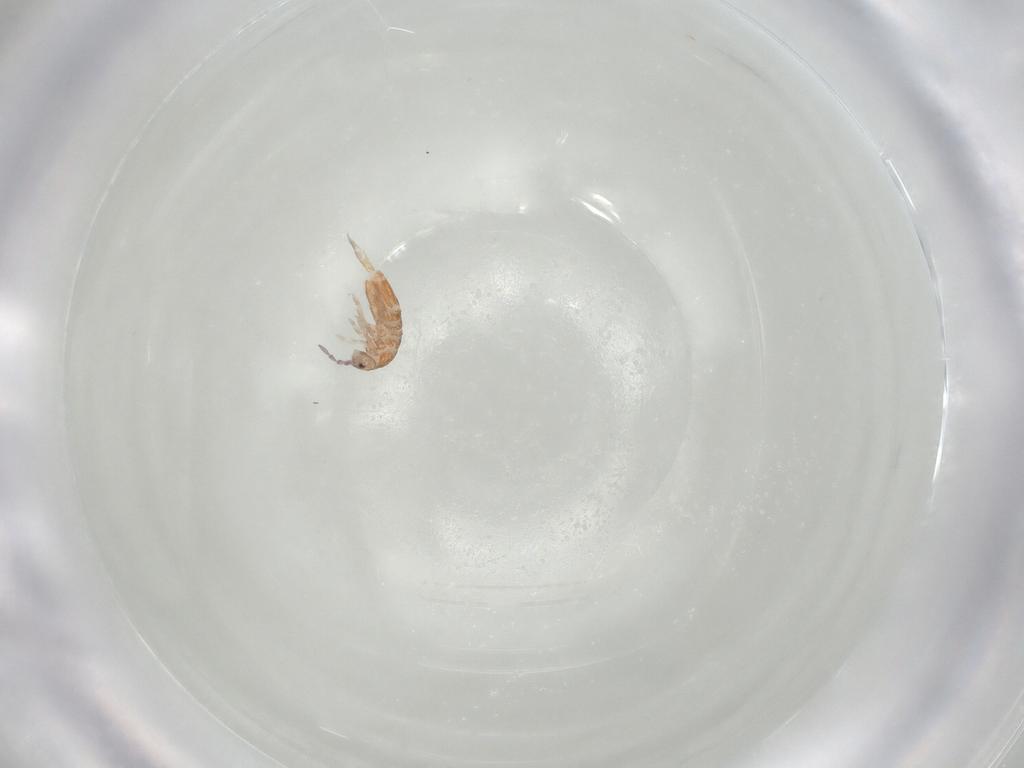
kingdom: Animalia
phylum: Arthropoda
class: Collembola
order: Entomobryomorpha
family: Entomobryidae
